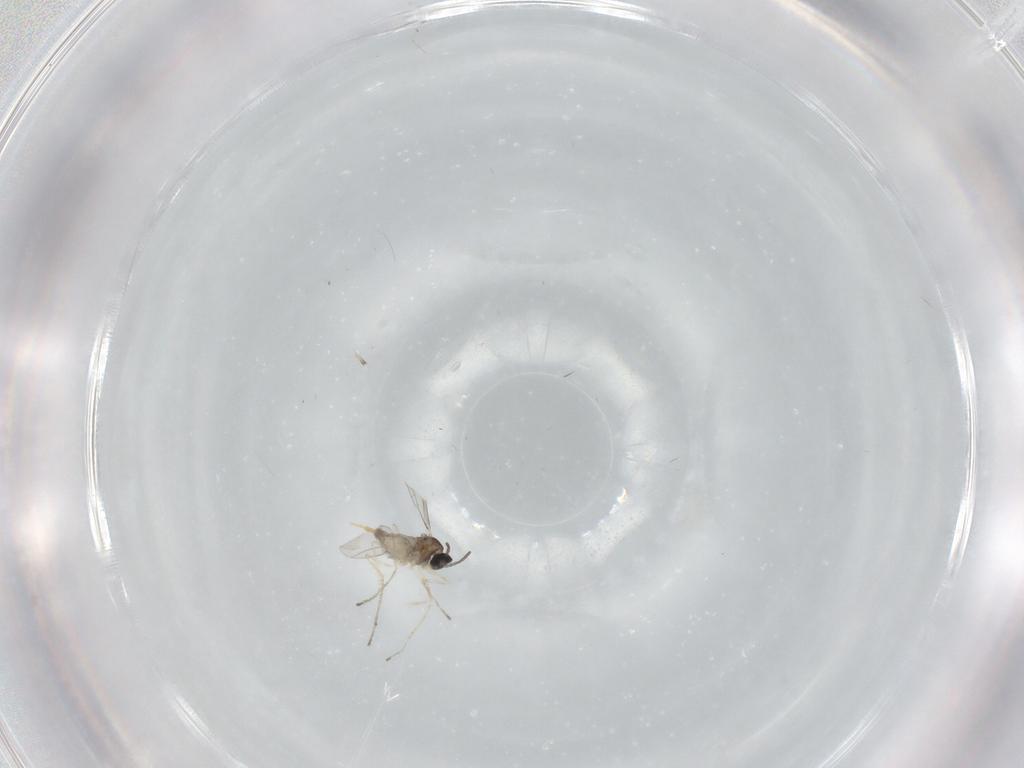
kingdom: Animalia
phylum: Arthropoda
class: Insecta
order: Diptera
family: Cecidomyiidae
